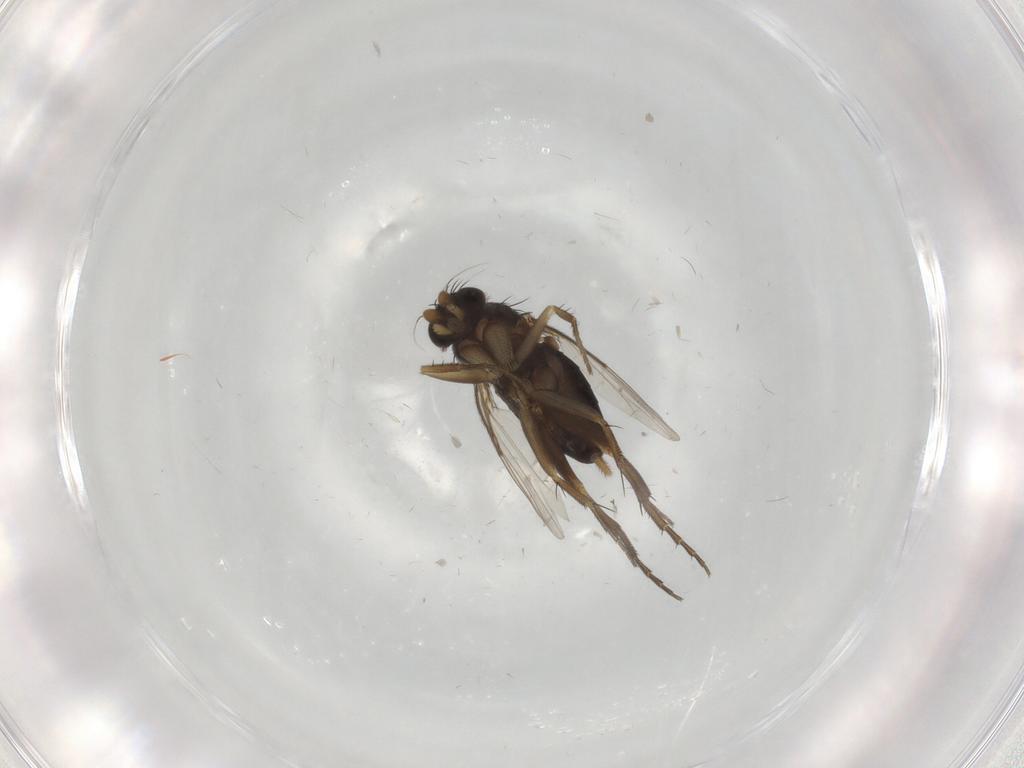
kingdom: Animalia
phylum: Arthropoda
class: Insecta
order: Diptera
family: Phoridae
